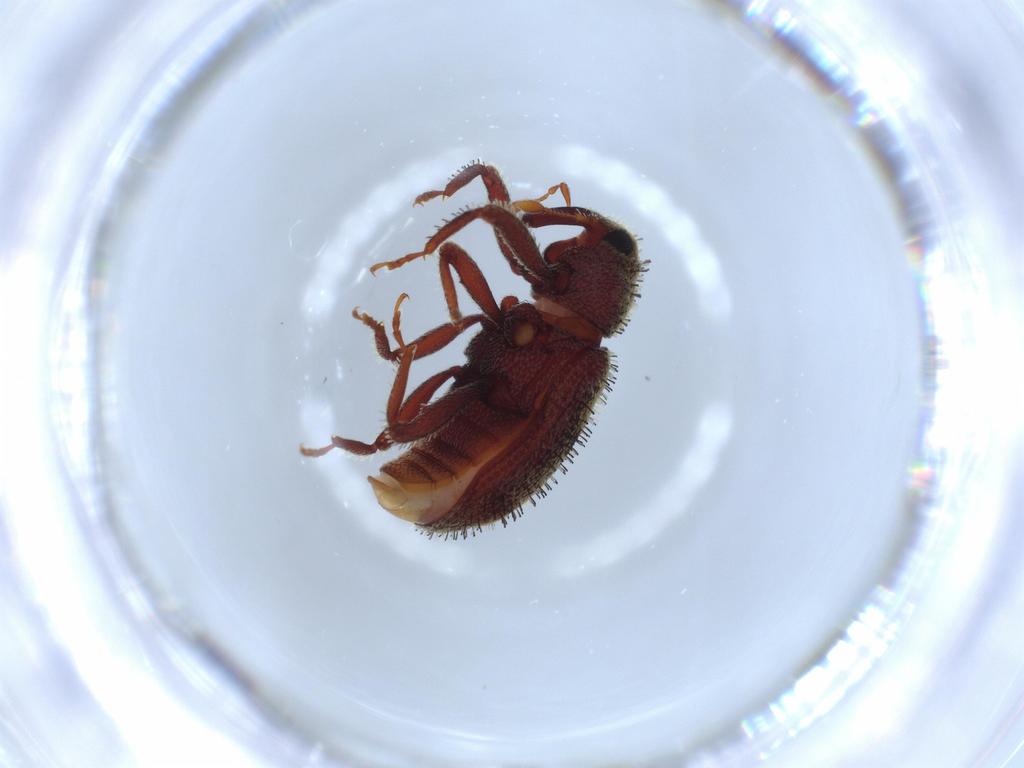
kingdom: Animalia
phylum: Arthropoda
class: Insecta
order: Coleoptera
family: Curculionidae
